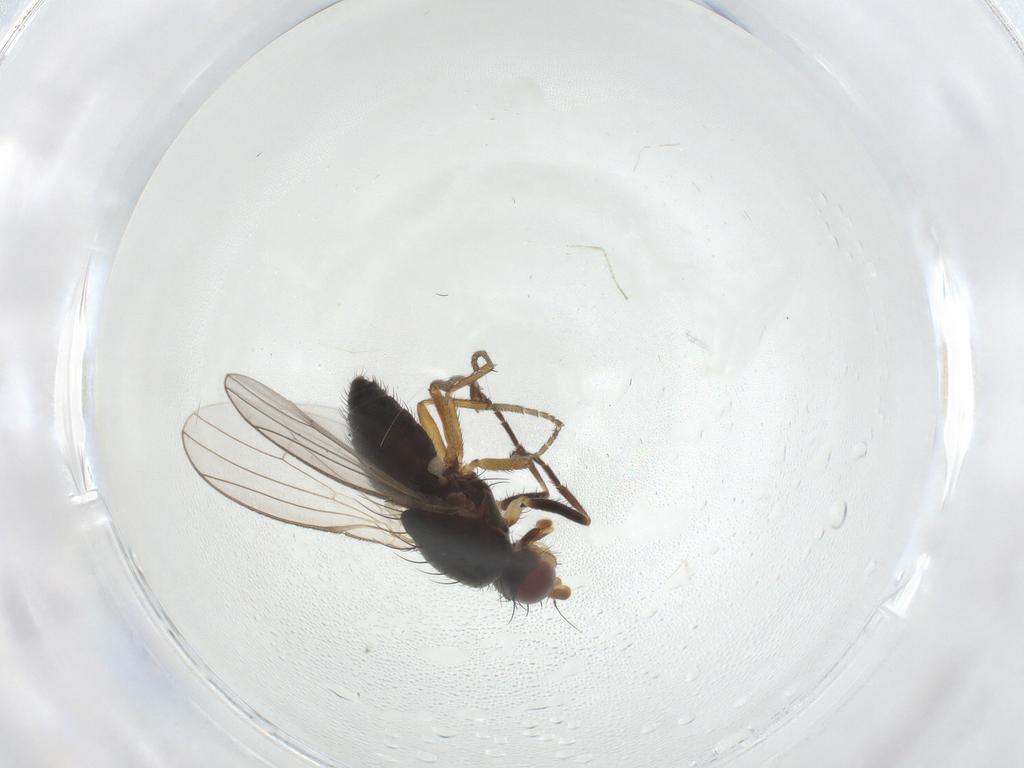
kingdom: Animalia
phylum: Arthropoda
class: Insecta
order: Diptera
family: Heleomyzidae
